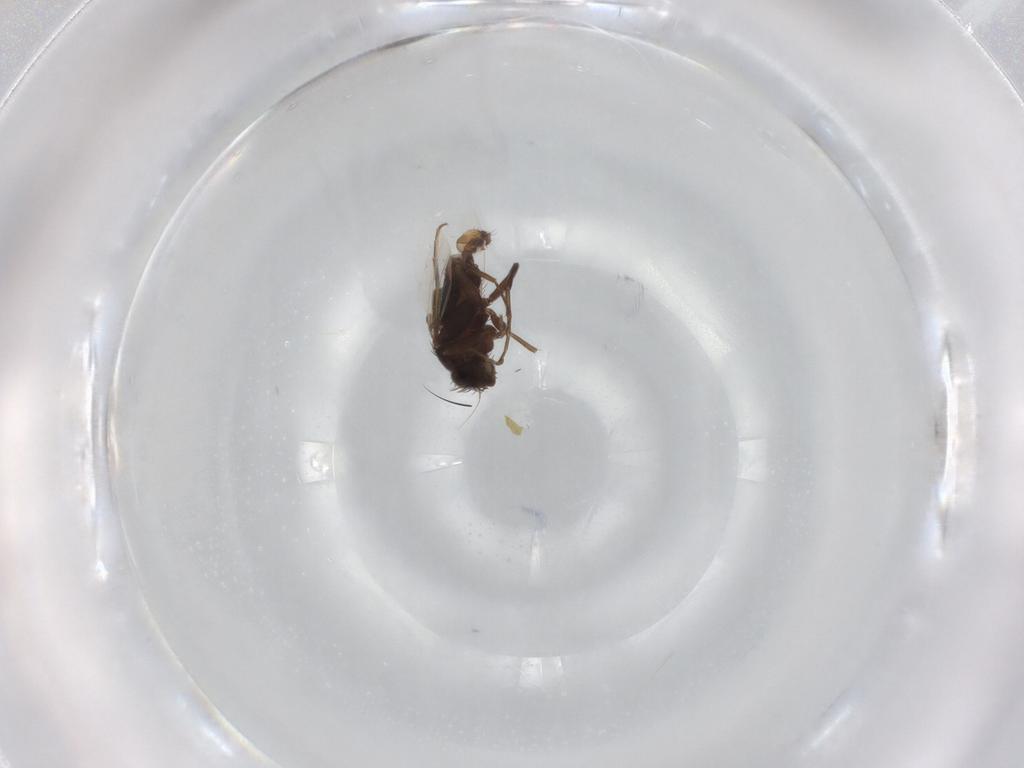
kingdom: Animalia
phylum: Arthropoda
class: Insecta
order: Diptera
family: Phoridae
